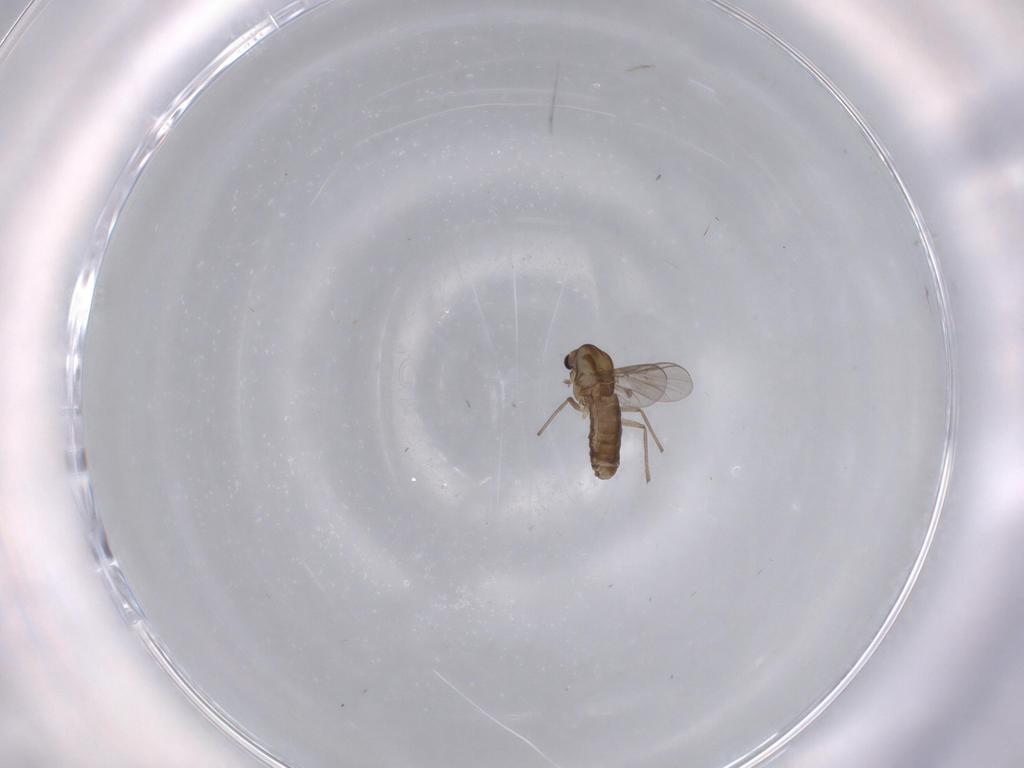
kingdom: Animalia
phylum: Arthropoda
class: Insecta
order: Diptera
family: Chironomidae
